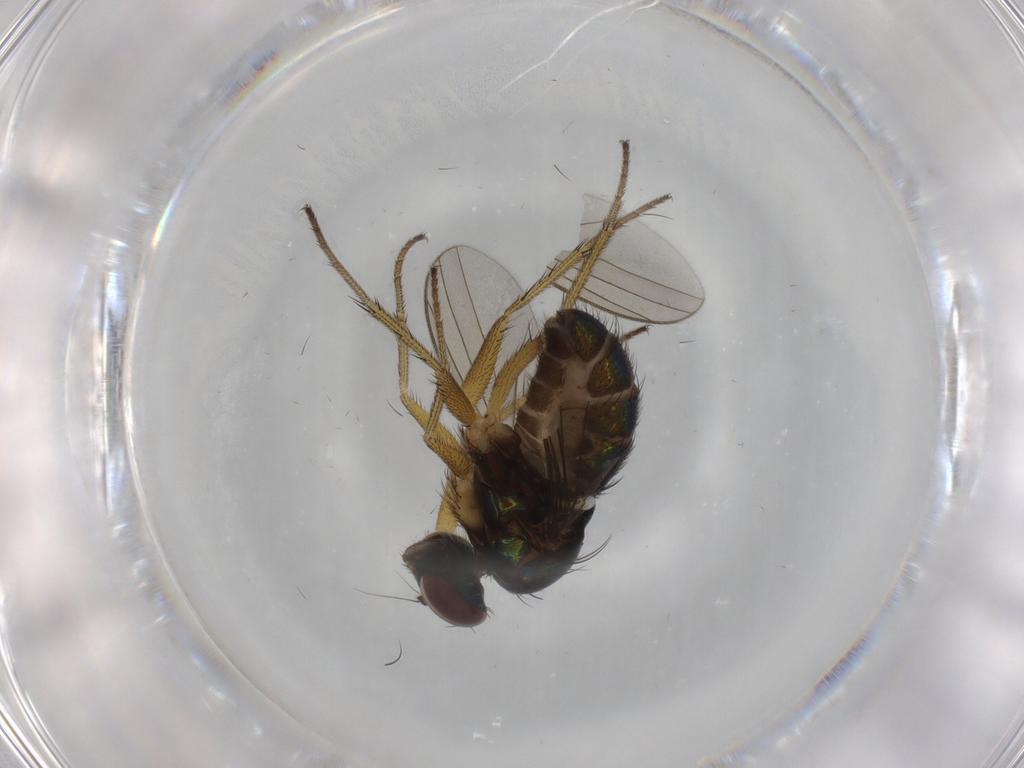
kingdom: Animalia
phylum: Arthropoda
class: Insecta
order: Diptera
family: Dolichopodidae
